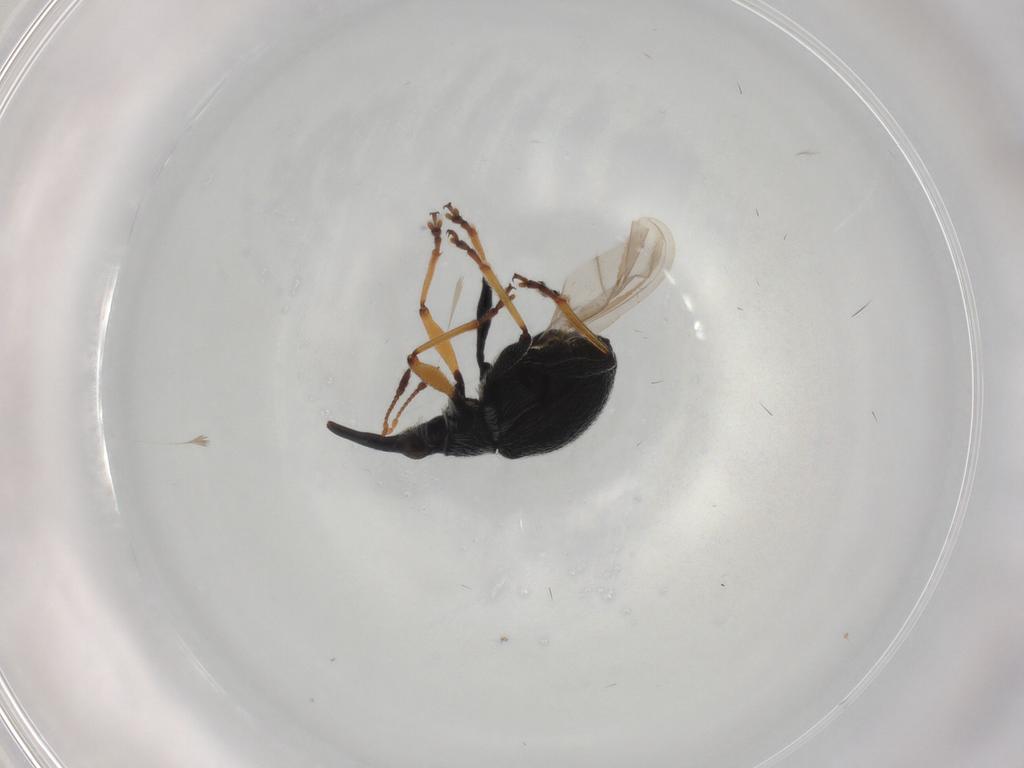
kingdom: Animalia
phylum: Arthropoda
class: Insecta
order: Coleoptera
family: Brentidae
